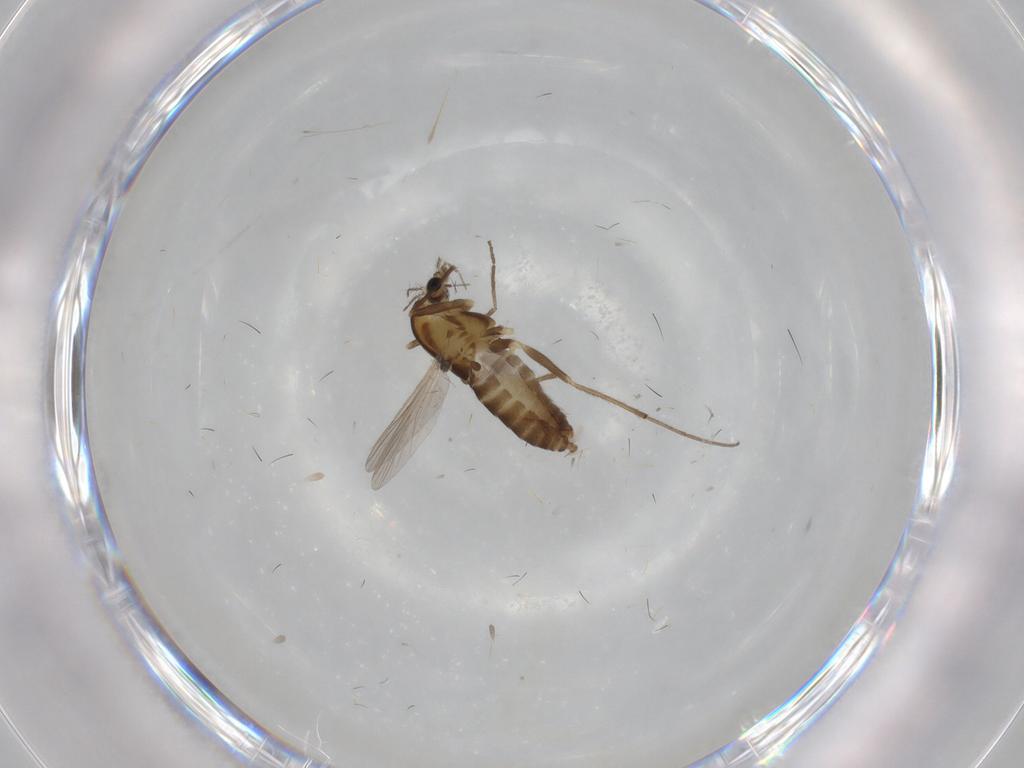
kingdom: Animalia
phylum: Arthropoda
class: Insecta
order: Diptera
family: Chironomidae
